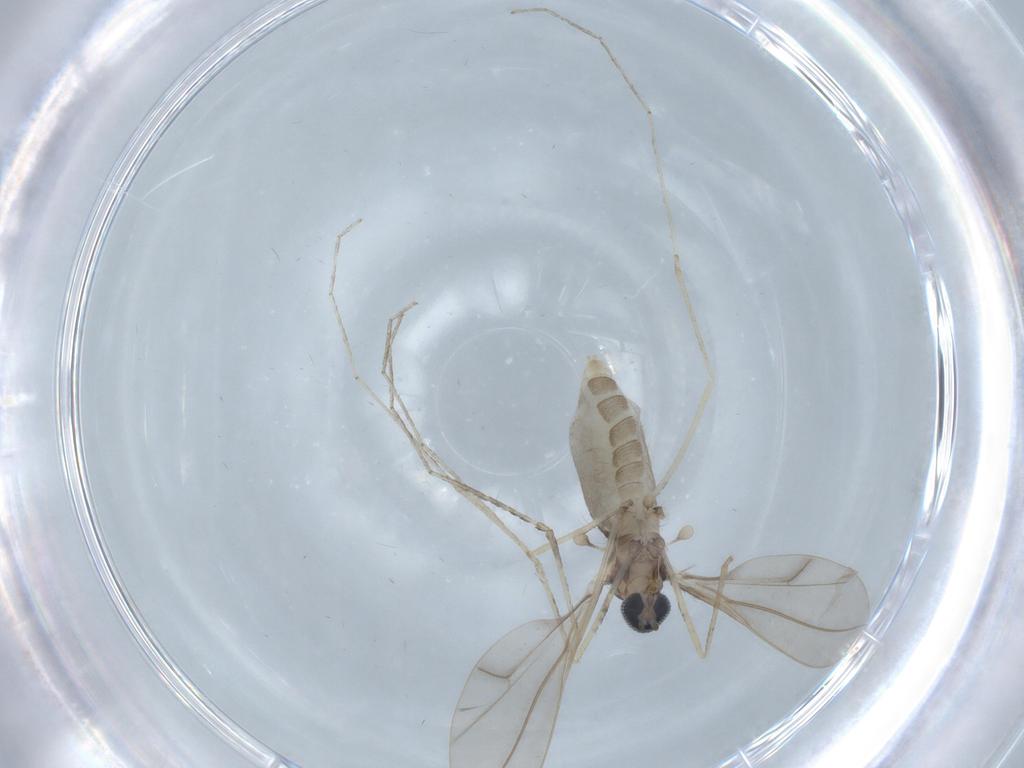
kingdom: Animalia
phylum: Arthropoda
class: Insecta
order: Diptera
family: Cecidomyiidae
